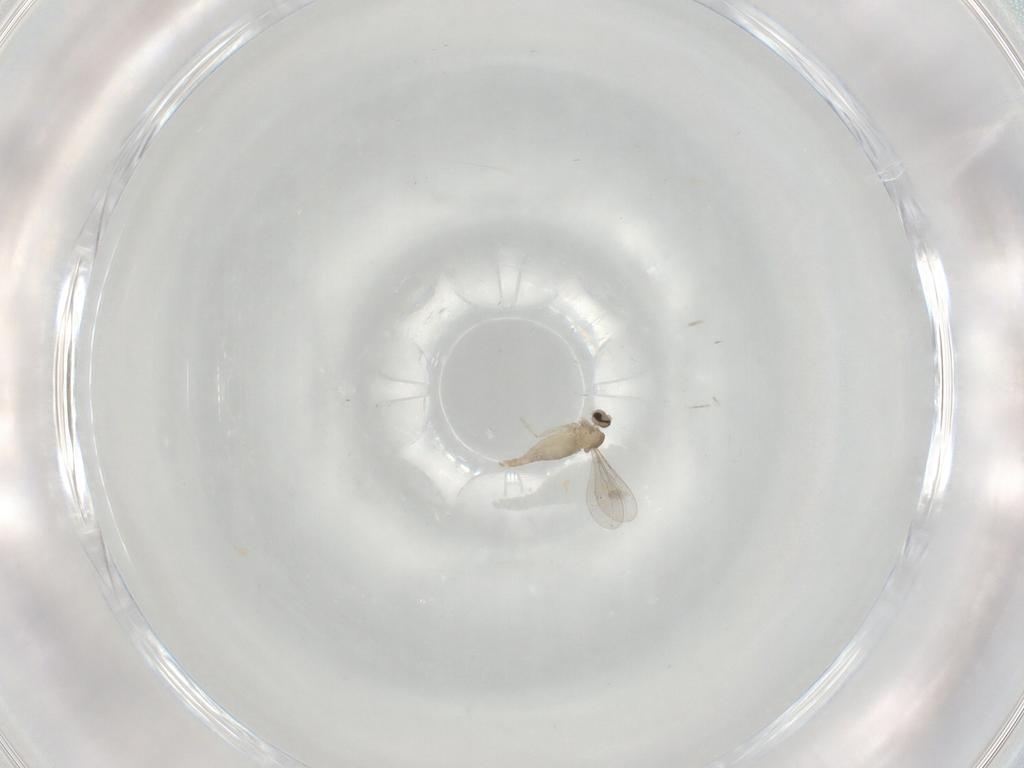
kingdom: Animalia
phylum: Arthropoda
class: Insecta
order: Diptera
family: Cecidomyiidae
